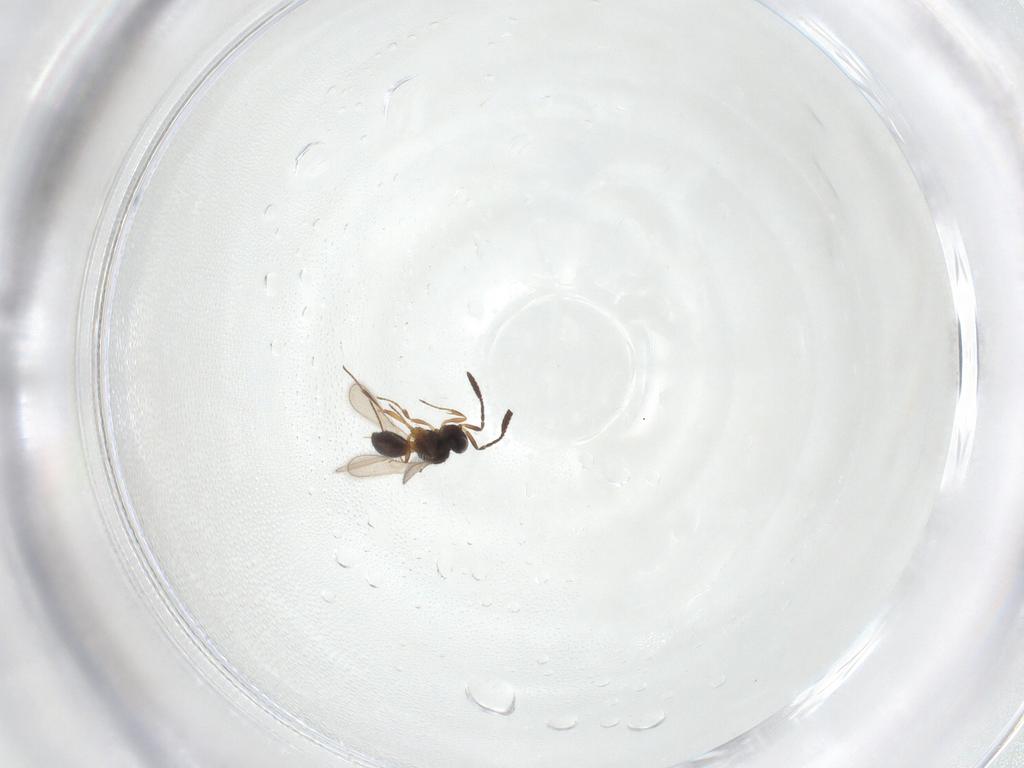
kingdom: Animalia
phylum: Arthropoda
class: Insecta
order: Hymenoptera
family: Scelionidae
